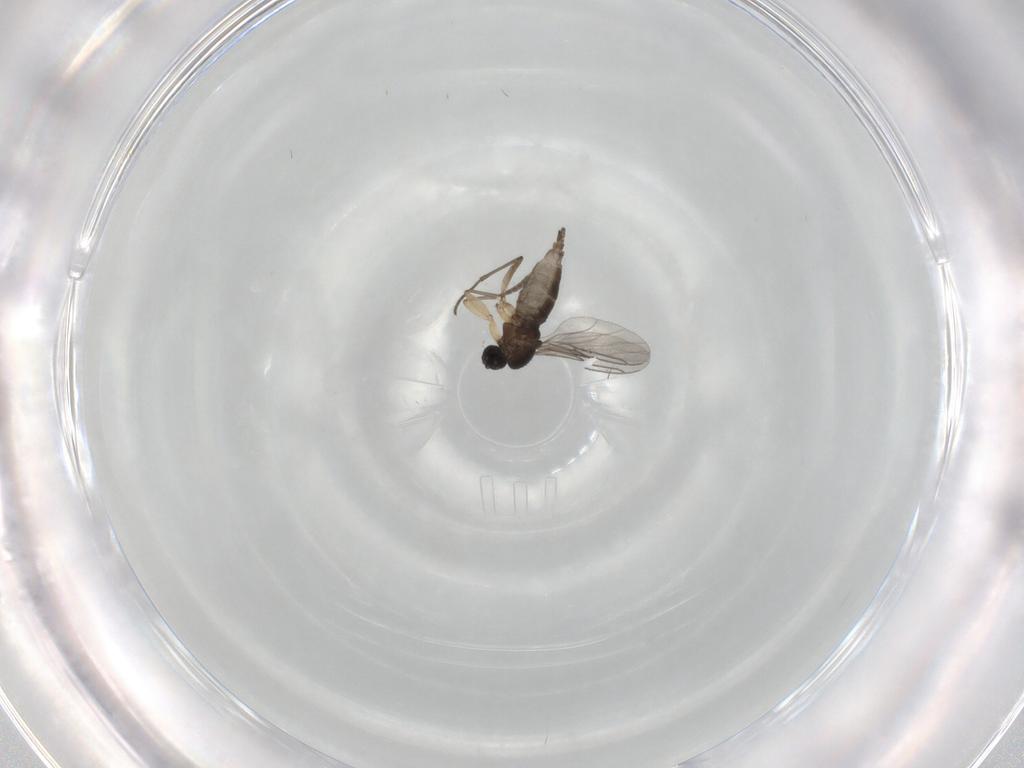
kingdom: Animalia
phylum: Arthropoda
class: Insecta
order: Diptera
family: Sciaridae
